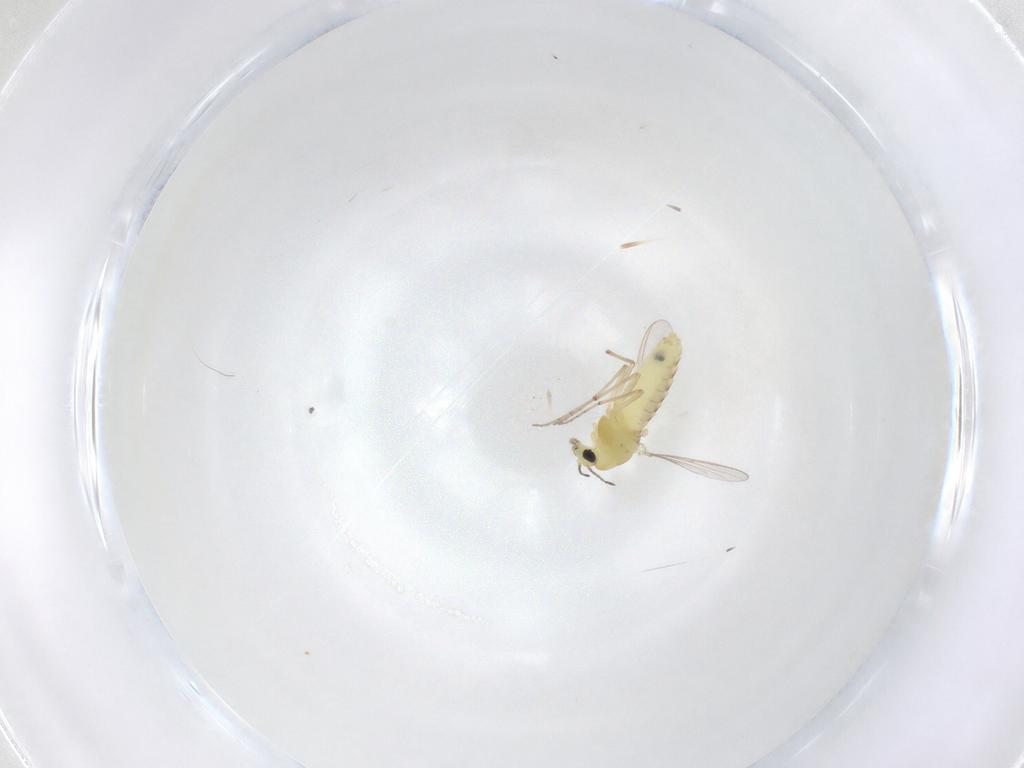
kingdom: Animalia
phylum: Arthropoda
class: Insecta
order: Diptera
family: Chironomidae
